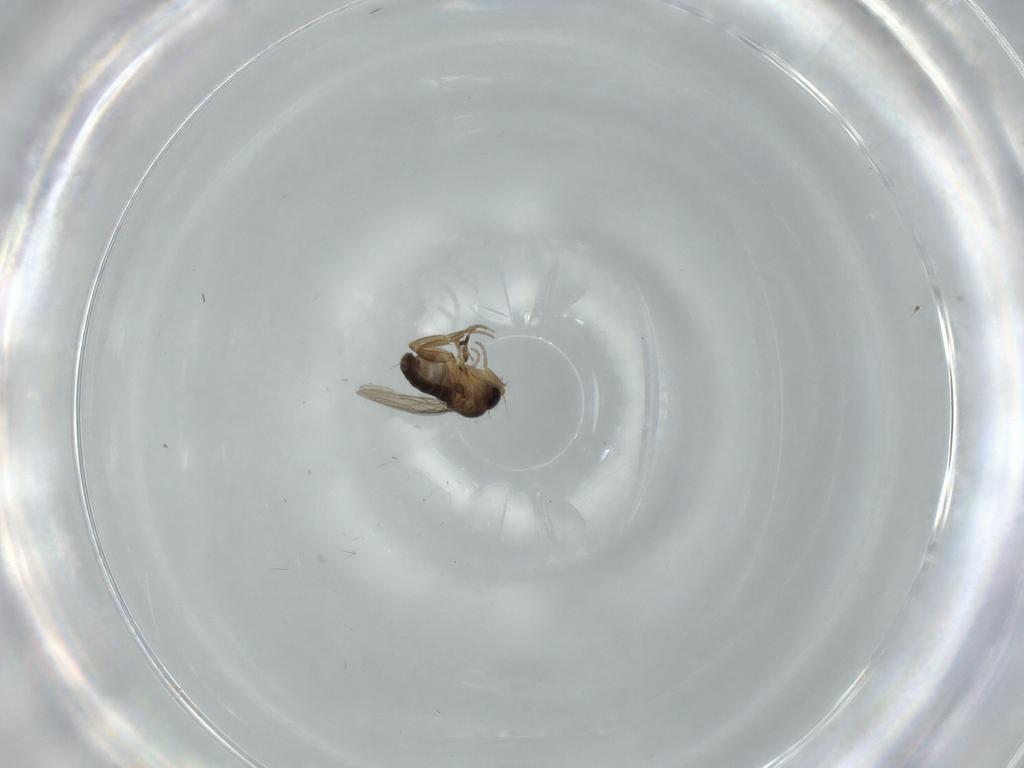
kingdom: Animalia
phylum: Arthropoda
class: Insecta
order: Diptera
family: Phoridae
